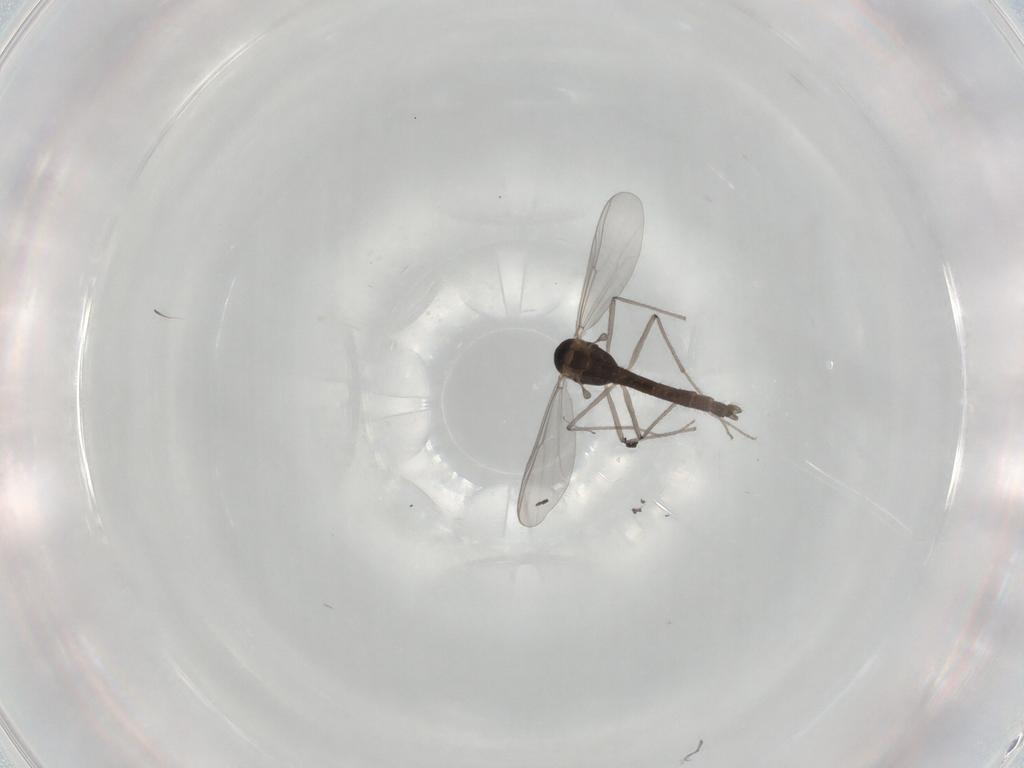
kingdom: Animalia
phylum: Arthropoda
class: Insecta
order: Diptera
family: Chironomidae
